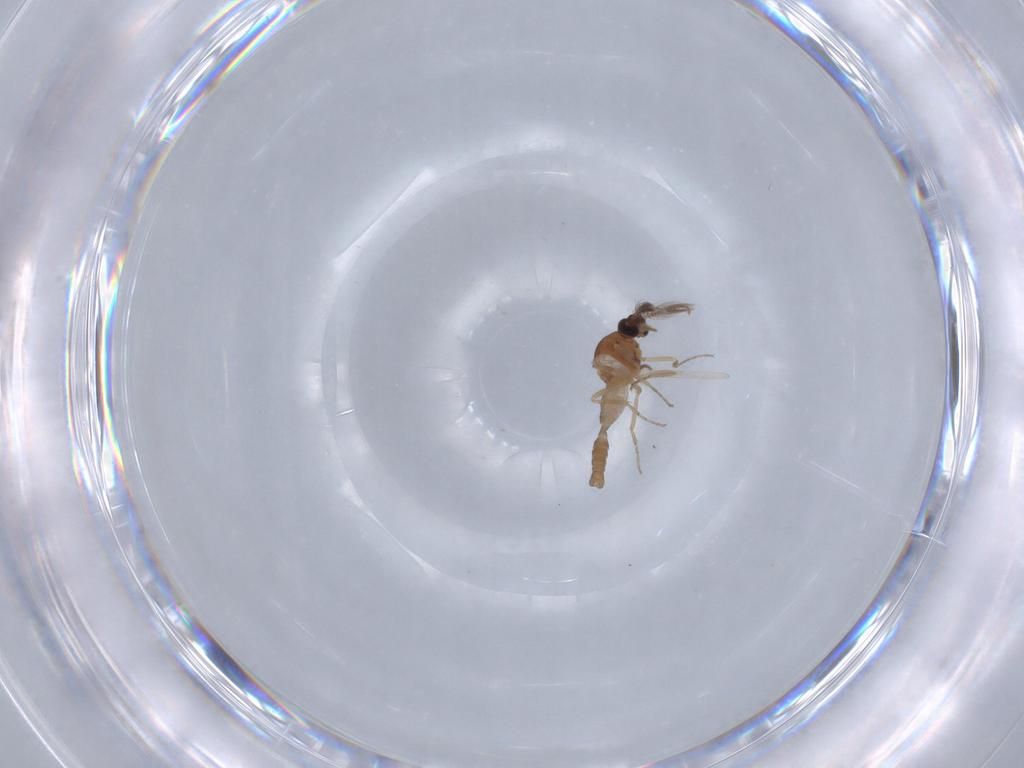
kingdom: Animalia
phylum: Arthropoda
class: Insecta
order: Diptera
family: Ceratopogonidae
